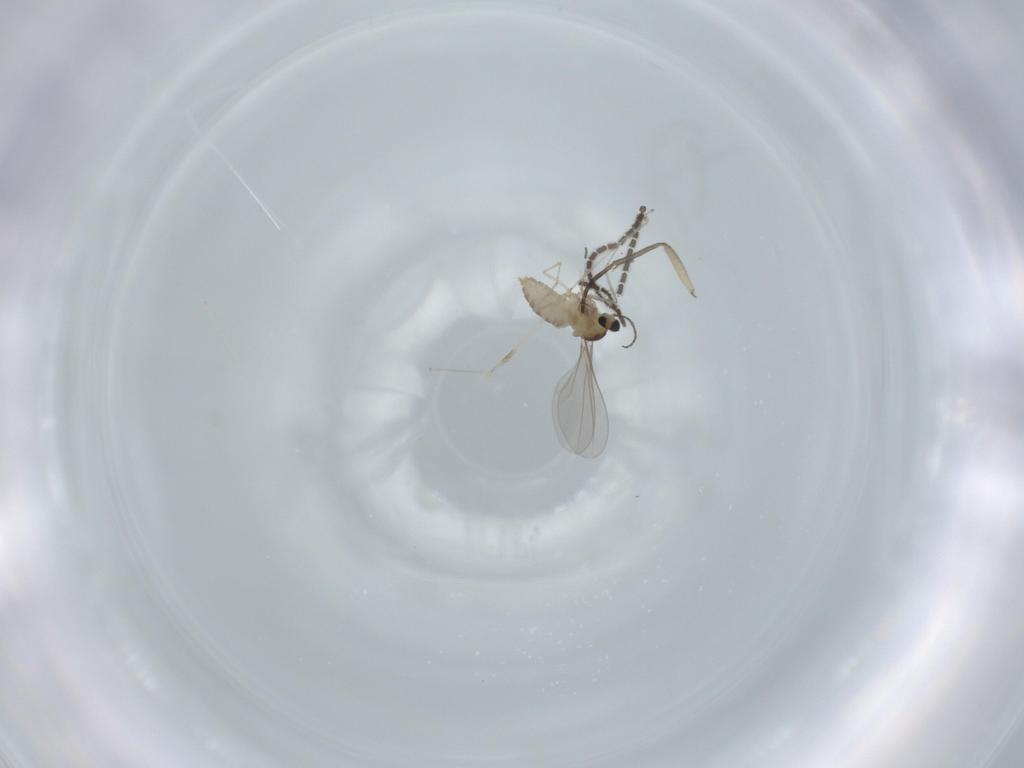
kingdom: Animalia
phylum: Arthropoda
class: Insecta
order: Diptera
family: Cecidomyiidae
